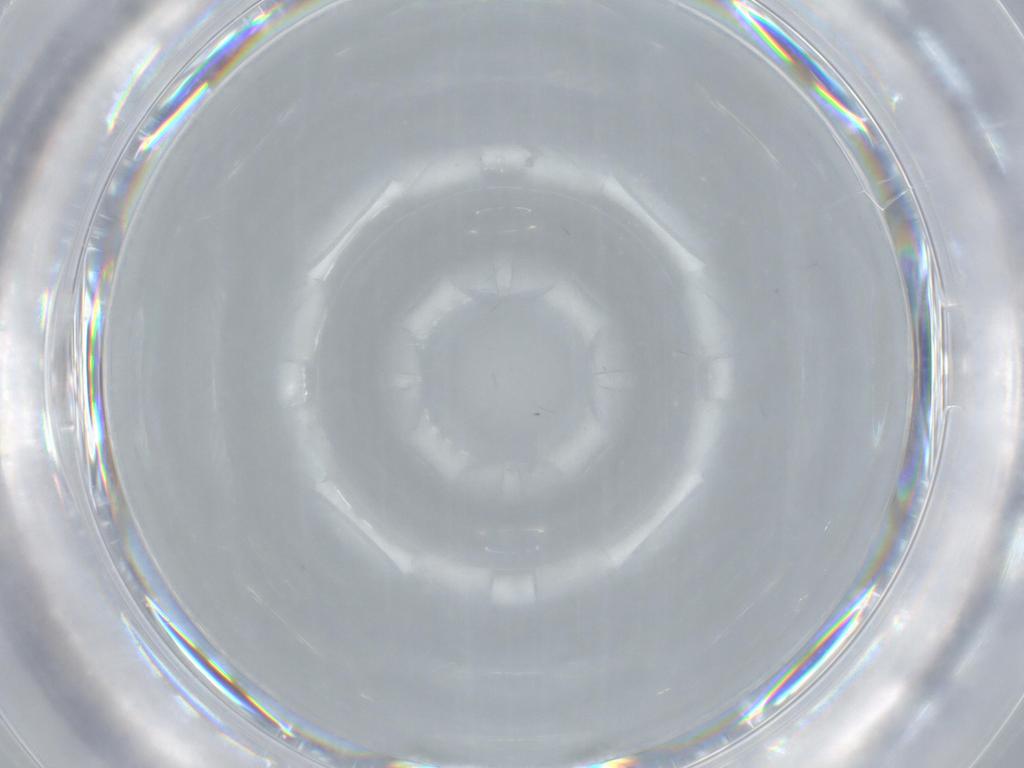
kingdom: Animalia
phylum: Arthropoda
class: Insecta
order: Hymenoptera
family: Mymaridae
